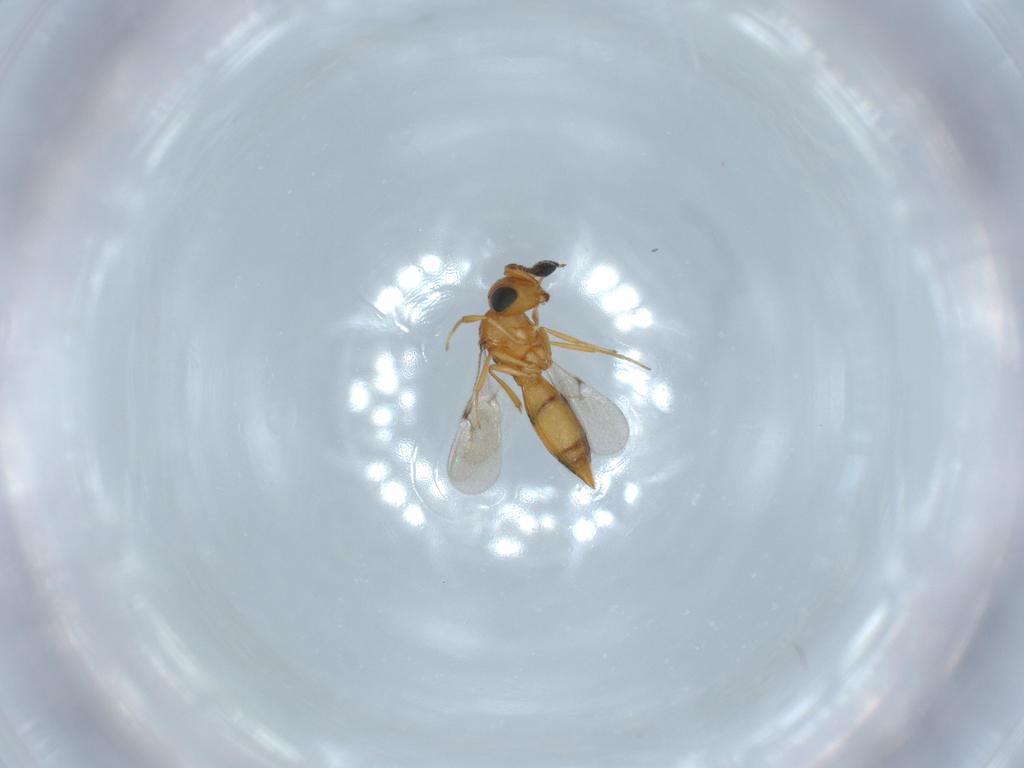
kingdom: Animalia
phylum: Arthropoda
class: Insecta
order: Hymenoptera
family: Scelionidae
